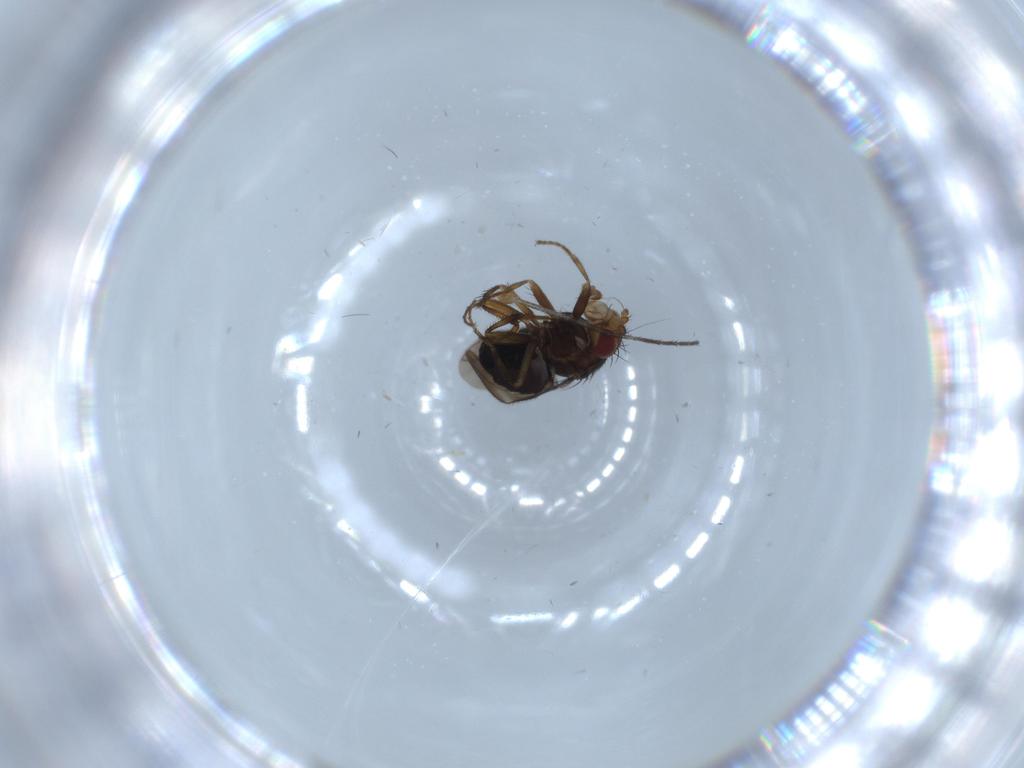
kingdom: Animalia
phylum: Arthropoda
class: Insecta
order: Diptera
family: Sphaeroceridae
